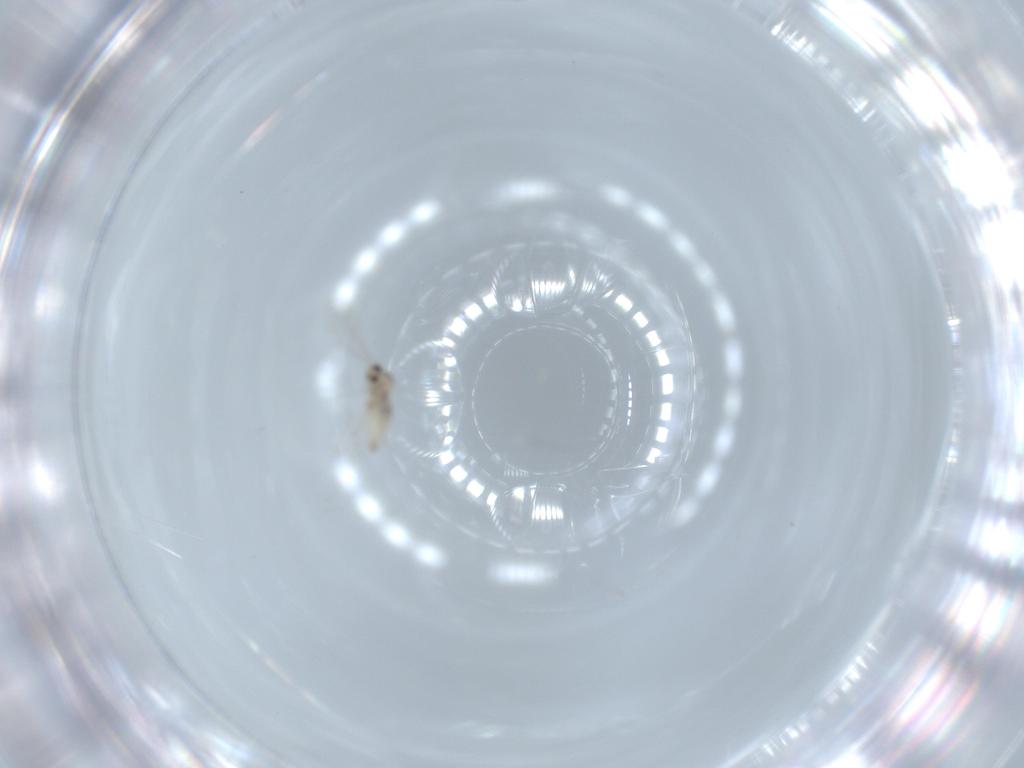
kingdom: Animalia
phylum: Arthropoda
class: Insecta
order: Diptera
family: Cecidomyiidae
